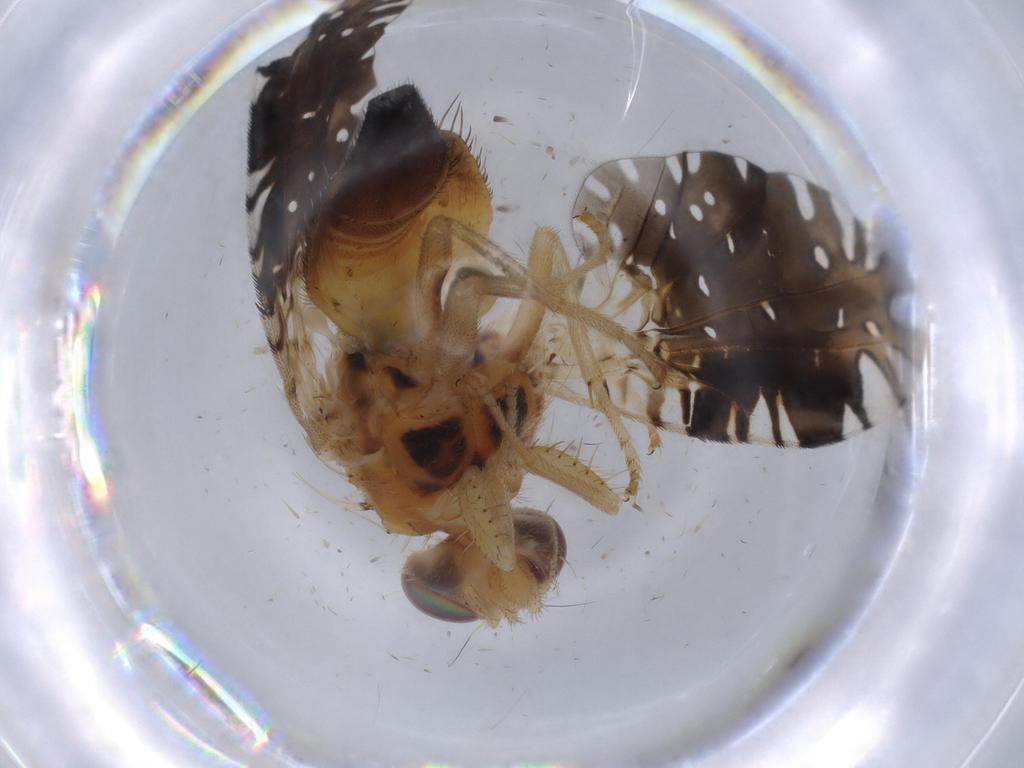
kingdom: Animalia
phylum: Arthropoda
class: Insecta
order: Diptera
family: Tephritidae
